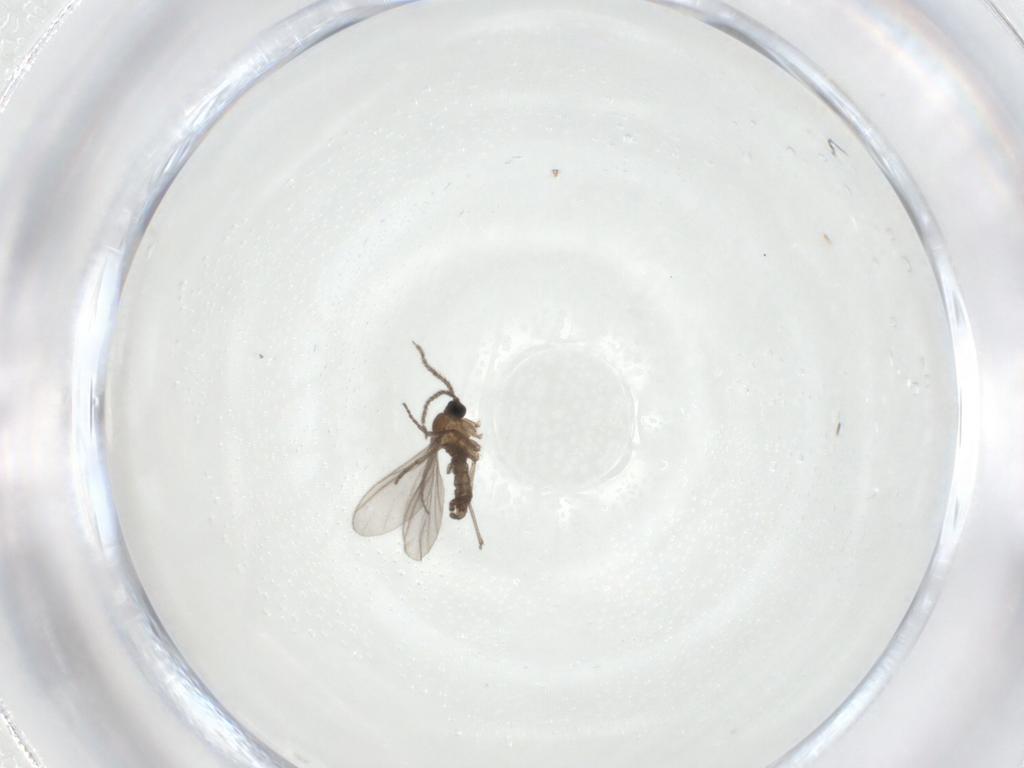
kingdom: Animalia
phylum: Arthropoda
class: Insecta
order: Diptera
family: Sciaridae
